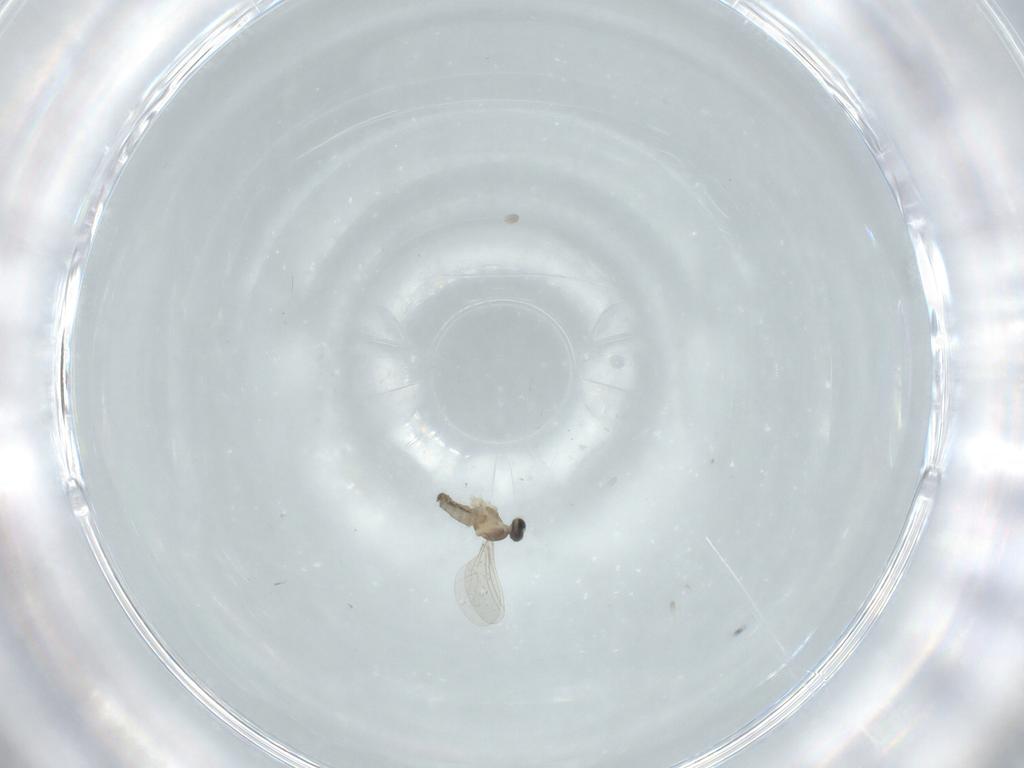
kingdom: Animalia
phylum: Arthropoda
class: Insecta
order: Diptera
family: Cecidomyiidae
